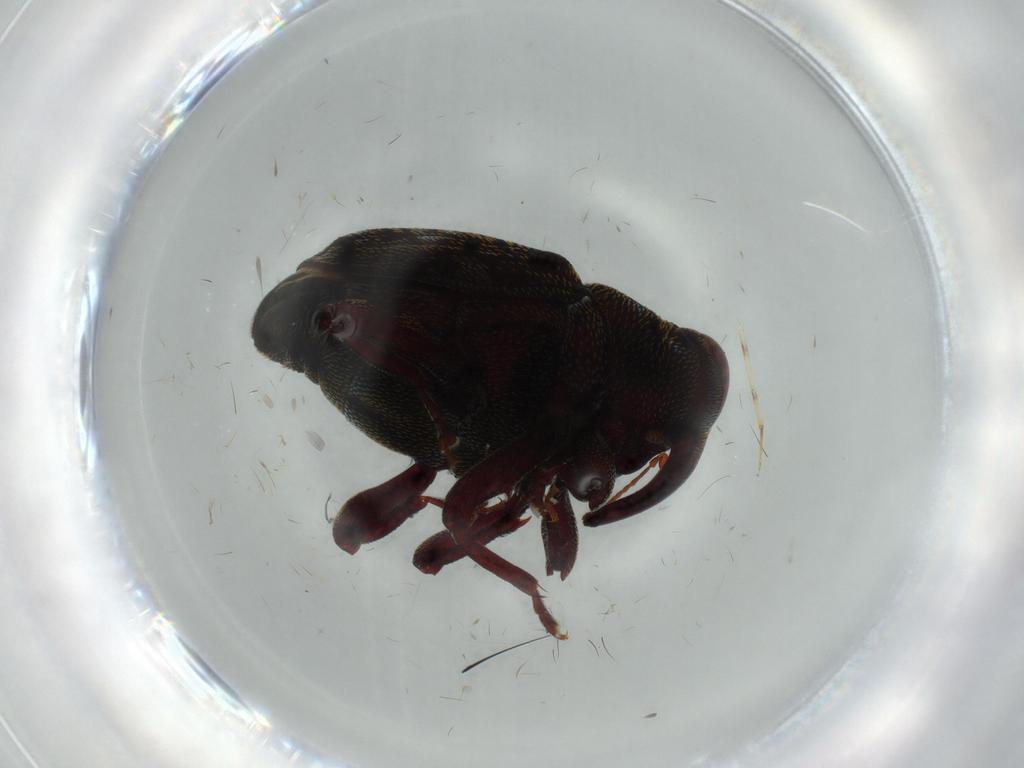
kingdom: Animalia
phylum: Arthropoda
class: Insecta
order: Coleoptera
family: Curculionidae
